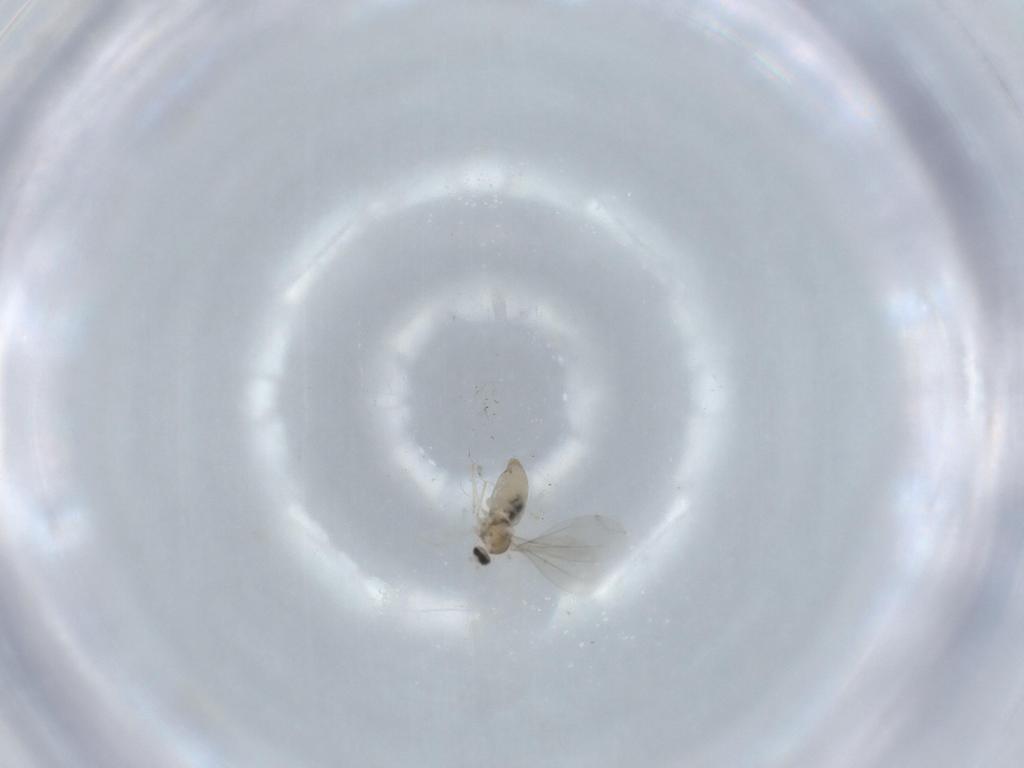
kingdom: Animalia
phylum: Arthropoda
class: Insecta
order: Diptera
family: Cecidomyiidae
